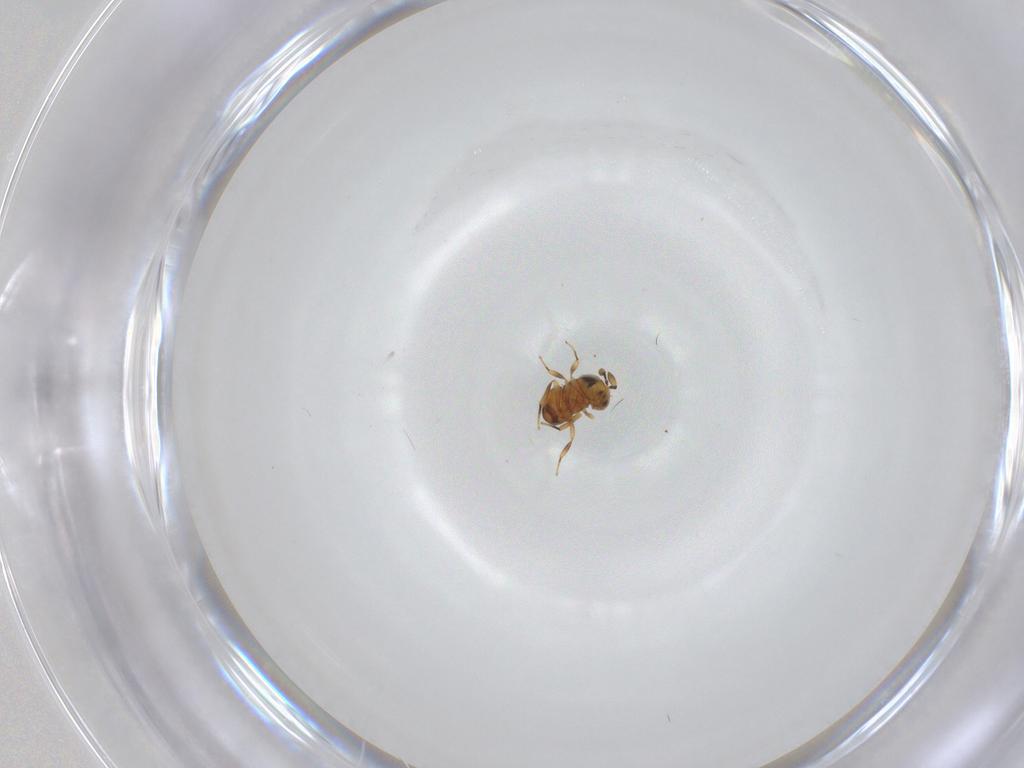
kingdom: Animalia
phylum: Arthropoda
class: Insecta
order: Hymenoptera
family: Scelionidae
